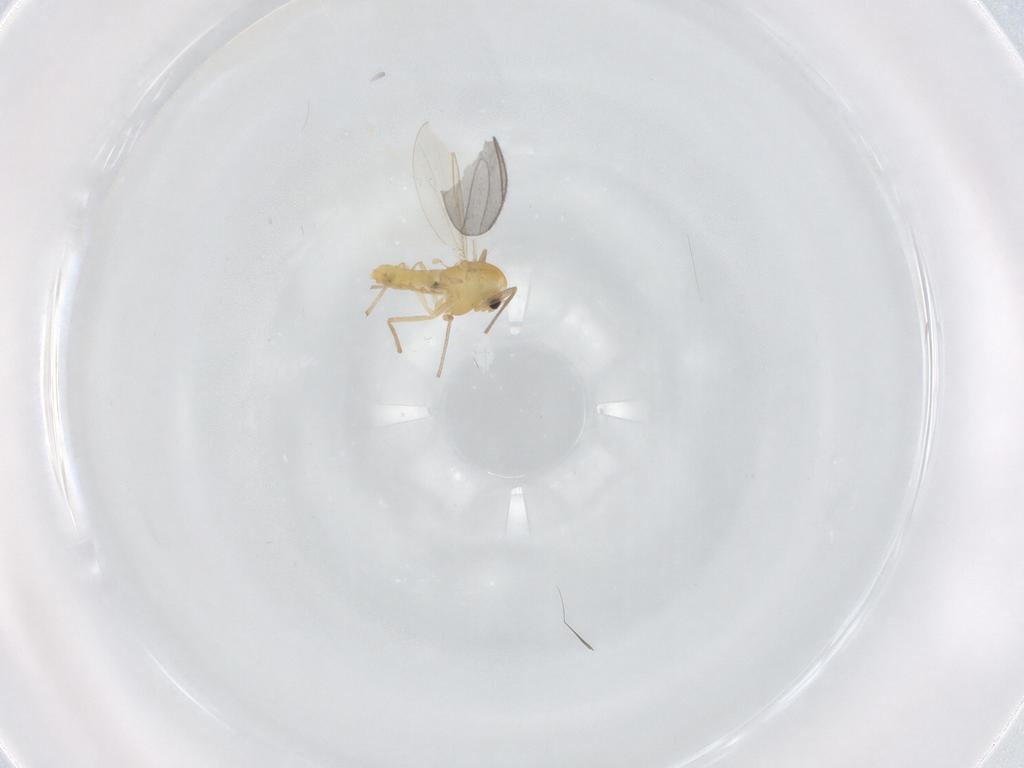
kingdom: Animalia
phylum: Arthropoda
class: Insecta
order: Diptera
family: Chironomidae
